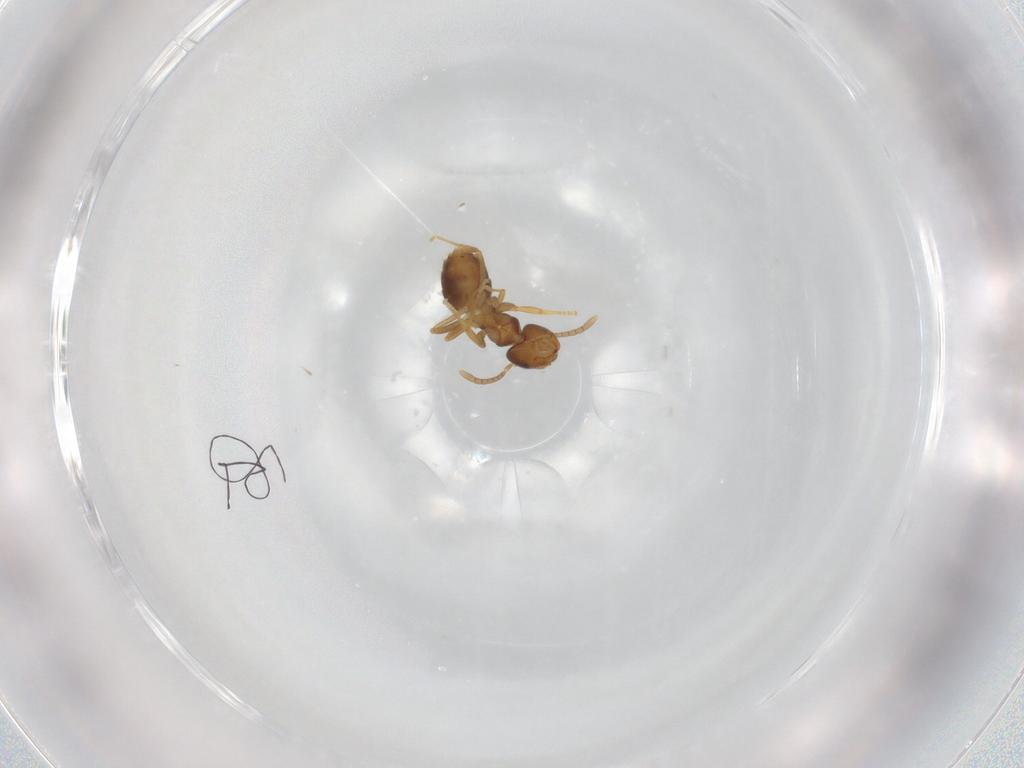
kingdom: Animalia
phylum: Arthropoda
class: Insecta
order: Hymenoptera
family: Formicidae
